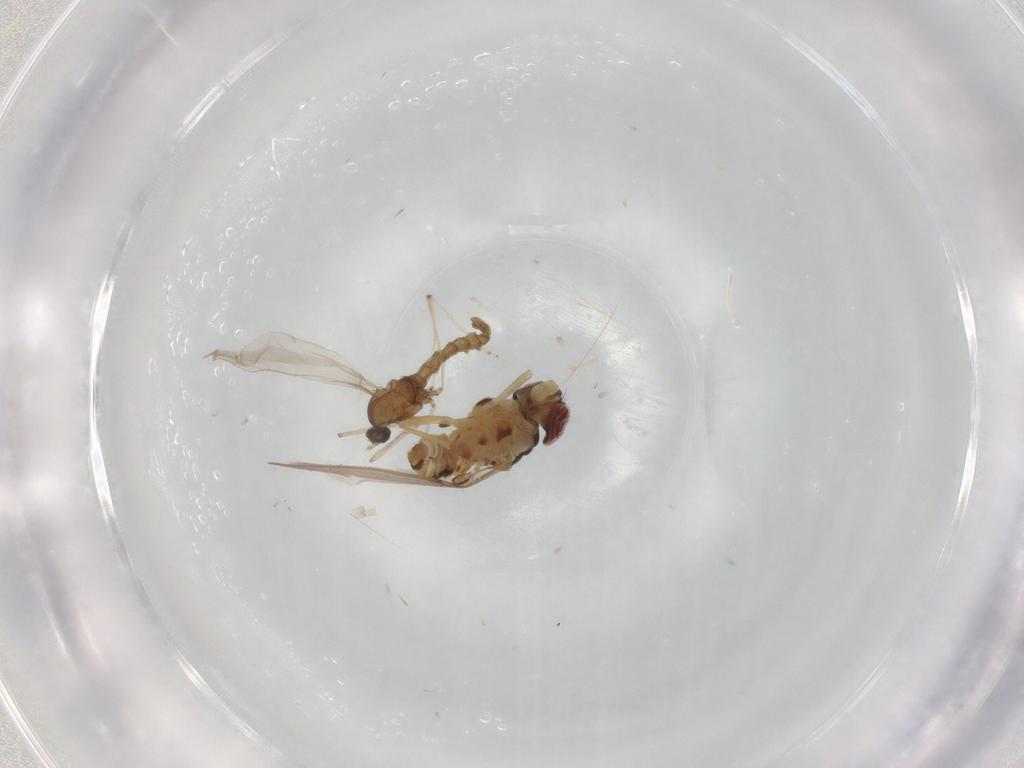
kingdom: Animalia
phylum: Arthropoda
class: Insecta
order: Diptera
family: Cecidomyiidae
